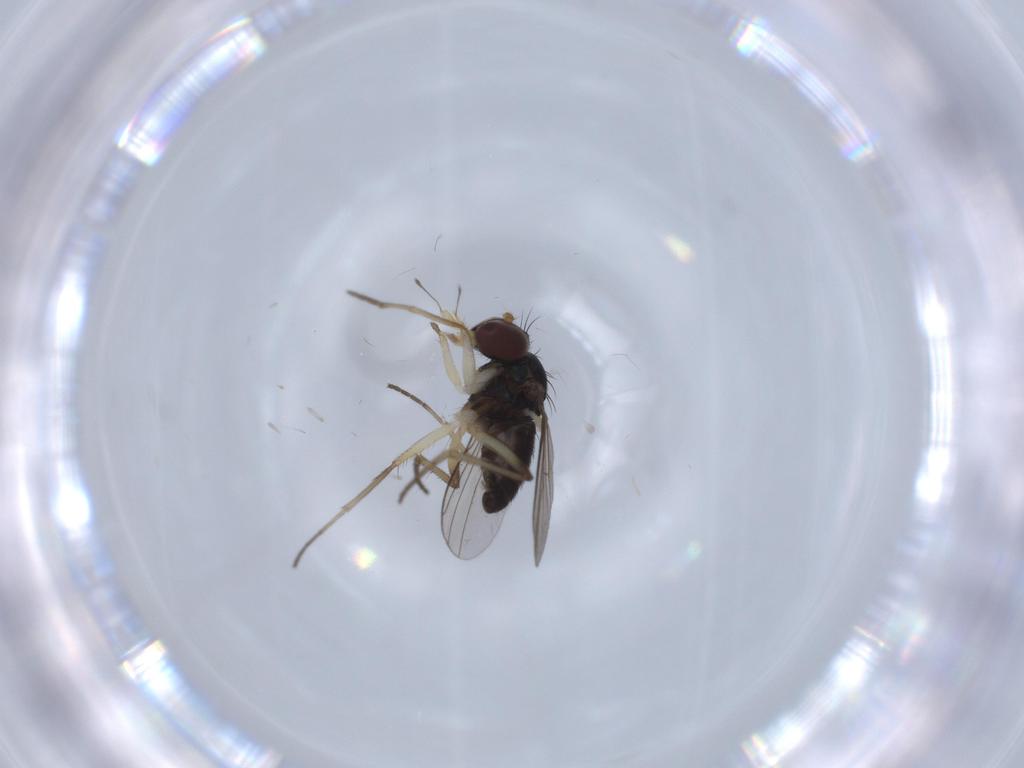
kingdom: Animalia
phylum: Arthropoda
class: Insecta
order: Diptera
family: Dolichopodidae
